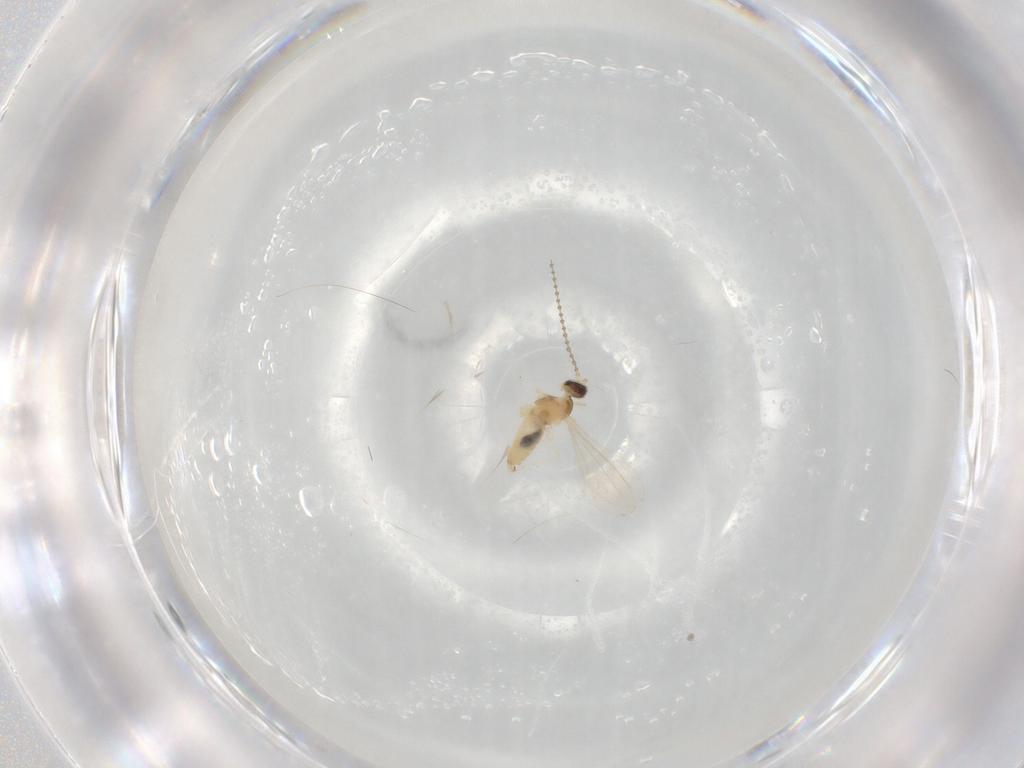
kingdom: Animalia
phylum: Arthropoda
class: Insecta
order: Diptera
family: Cecidomyiidae
